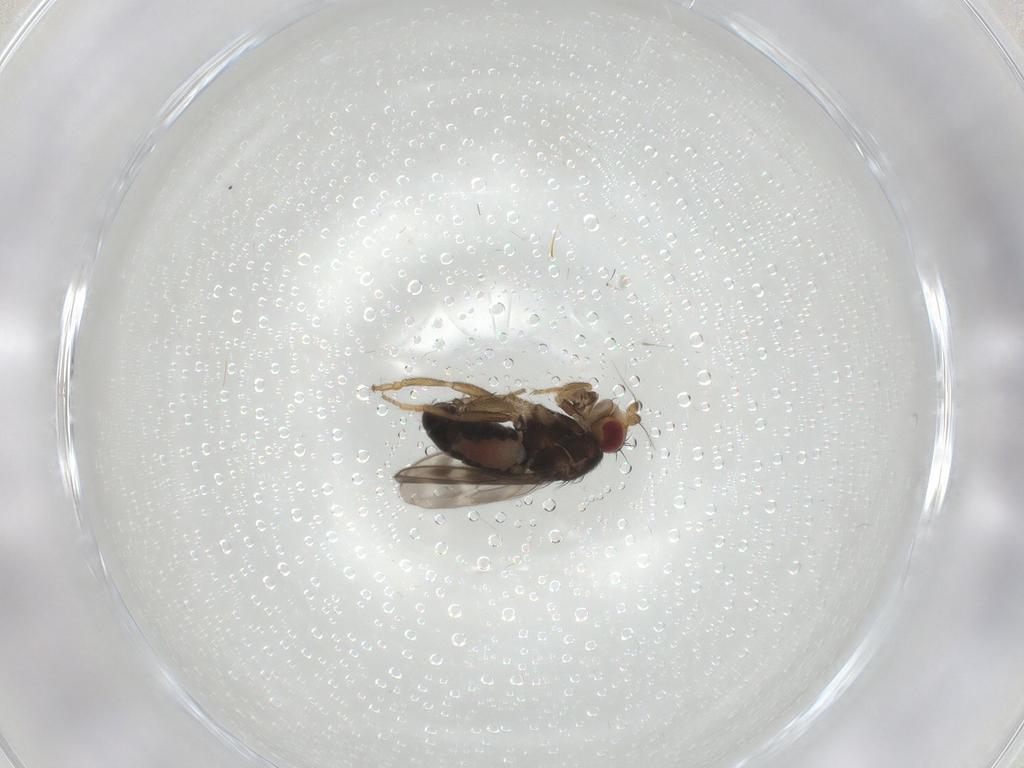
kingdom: Animalia
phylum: Arthropoda
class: Insecta
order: Diptera
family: Sphaeroceridae
